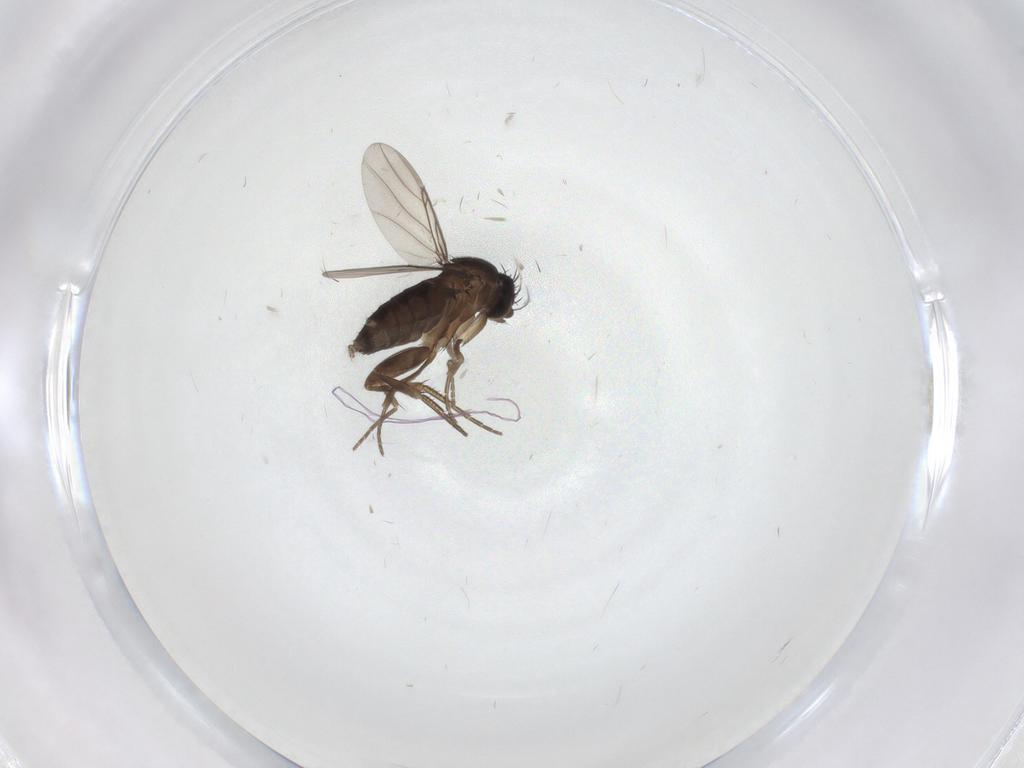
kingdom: Animalia
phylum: Arthropoda
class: Insecta
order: Diptera
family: Phoridae
